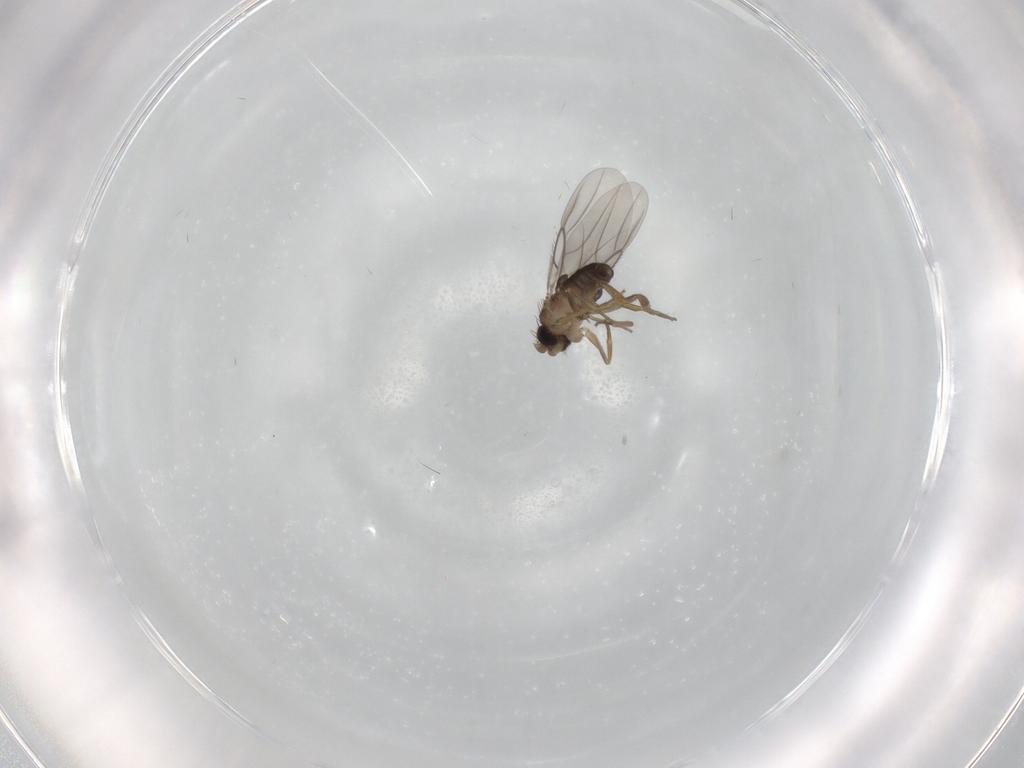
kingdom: Animalia
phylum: Arthropoda
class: Insecta
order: Diptera
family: Phoridae
